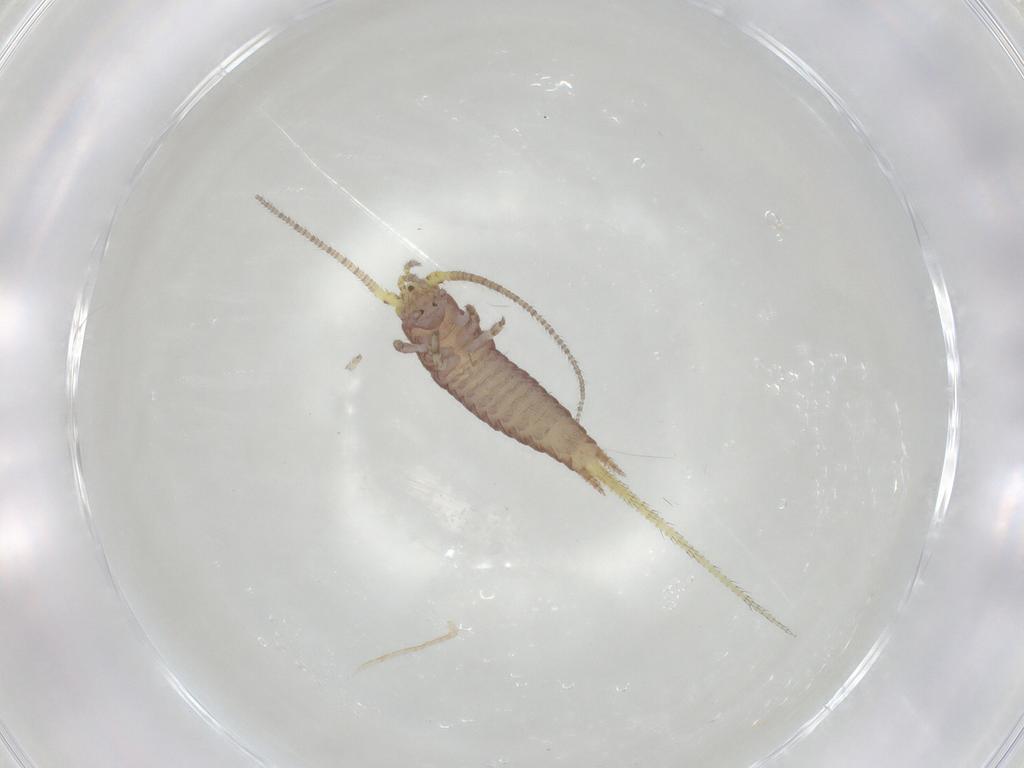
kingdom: Animalia
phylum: Arthropoda
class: Insecta
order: Archaeognatha
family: Machilidae
